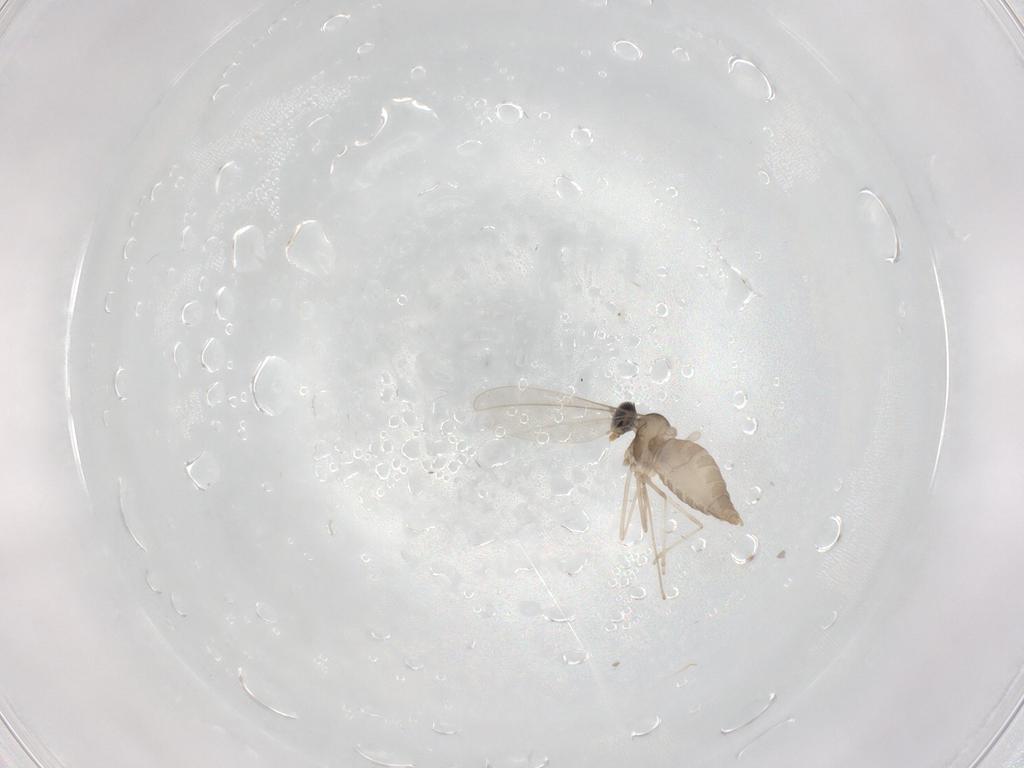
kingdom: Animalia
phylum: Arthropoda
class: Insecta
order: Diptera
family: Cecidomyiidae
